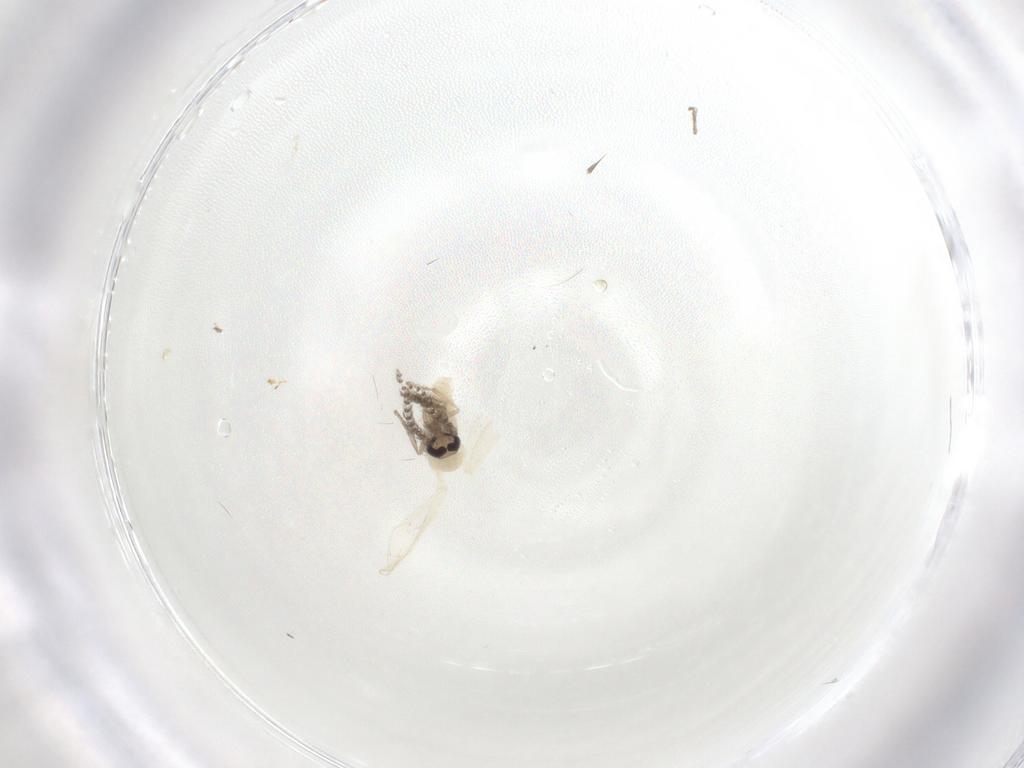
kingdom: Animalia
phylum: Arthropoda
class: Insecta
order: Diptera
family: Psychodidae
